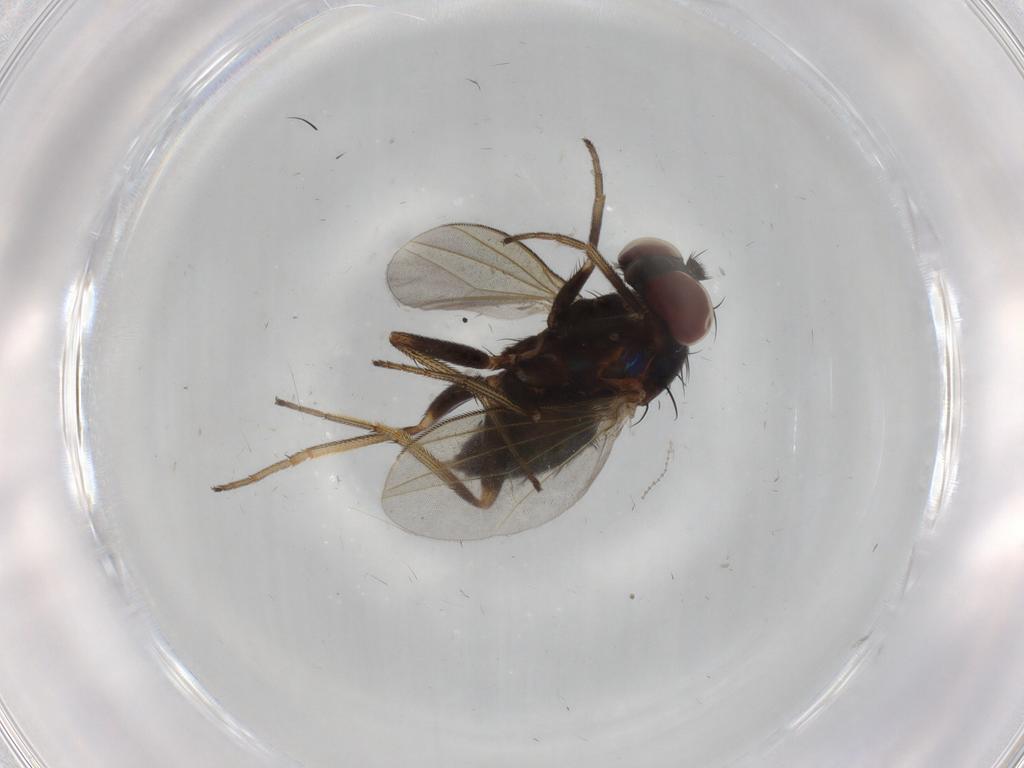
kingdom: Animalia
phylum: Arthropoda
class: Insecta
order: Diptera
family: Dolichopodidae
